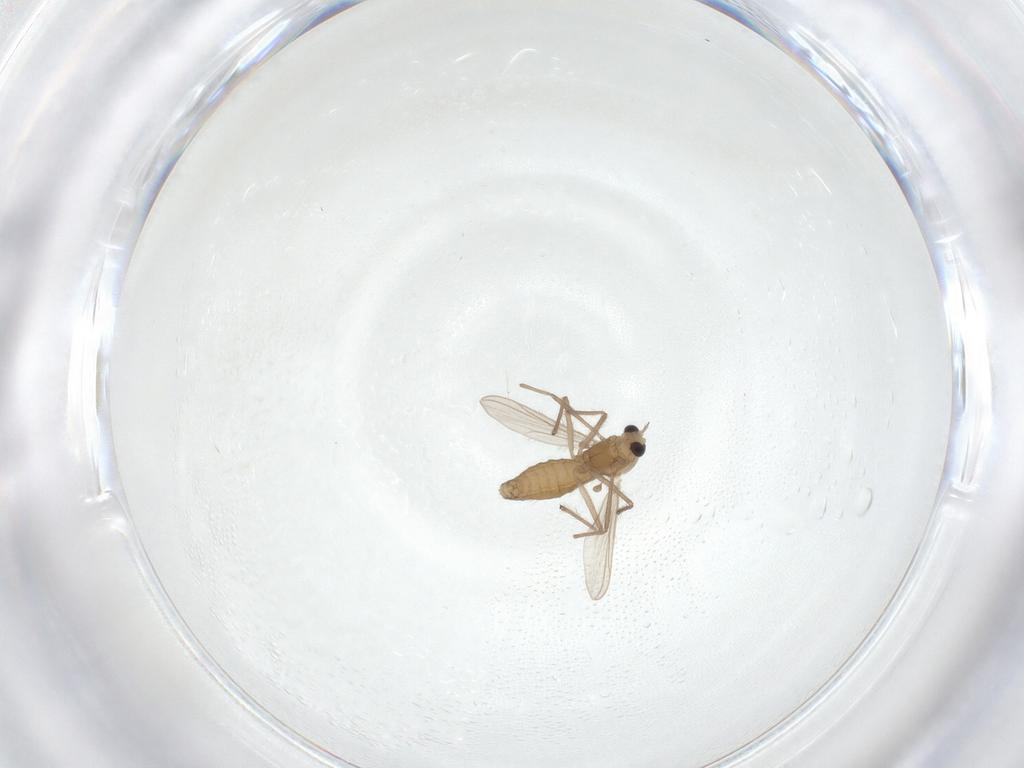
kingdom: Animalia
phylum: Arthropoda
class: Insecta
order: Diptera
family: Chironomidae
